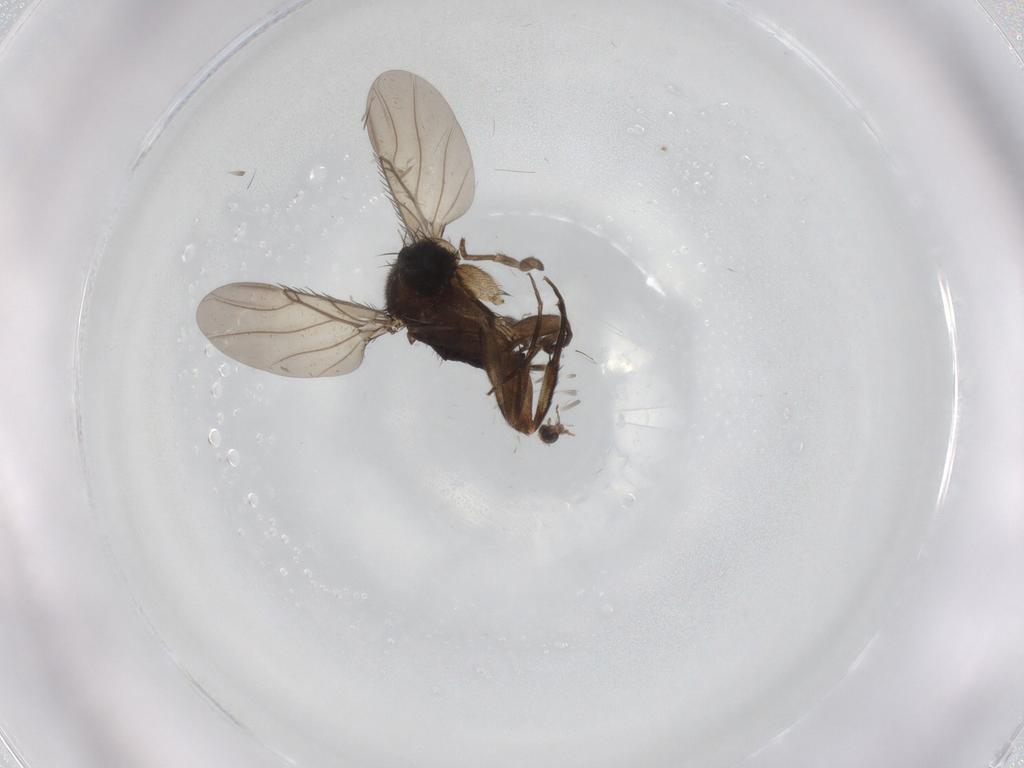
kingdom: Animalia
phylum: Arthropoda
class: Insecta
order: Diptera
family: Phoridae
